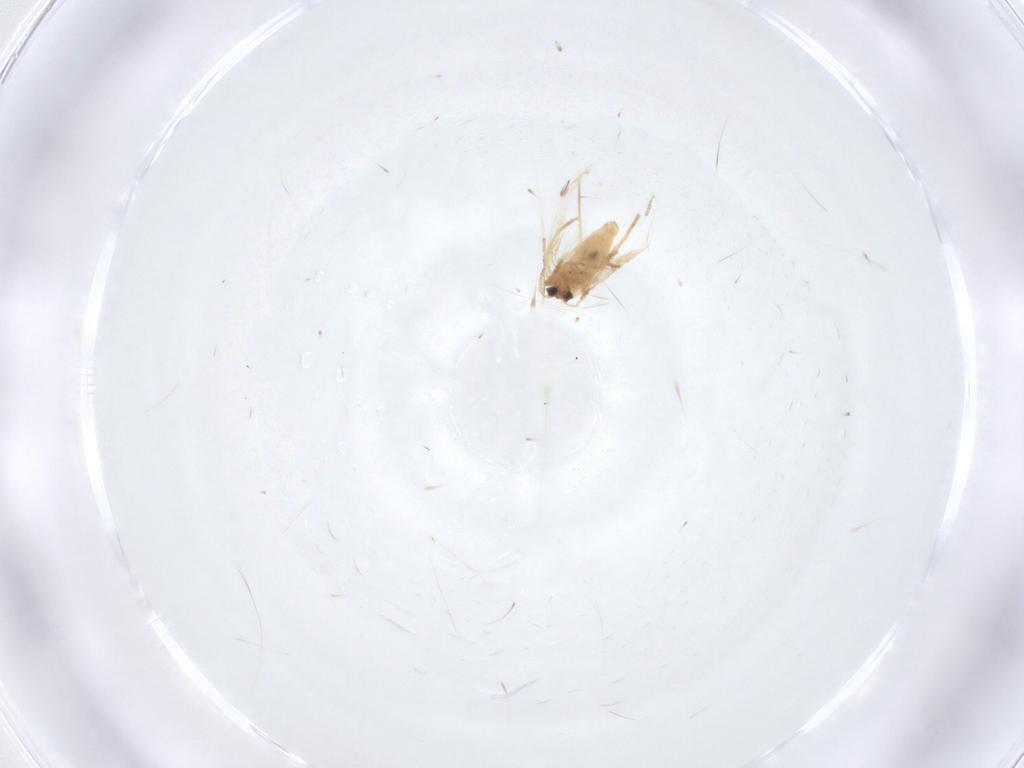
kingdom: Animalia
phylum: Arthropoda
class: Insecta
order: Lepidoptera
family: Crambidae
